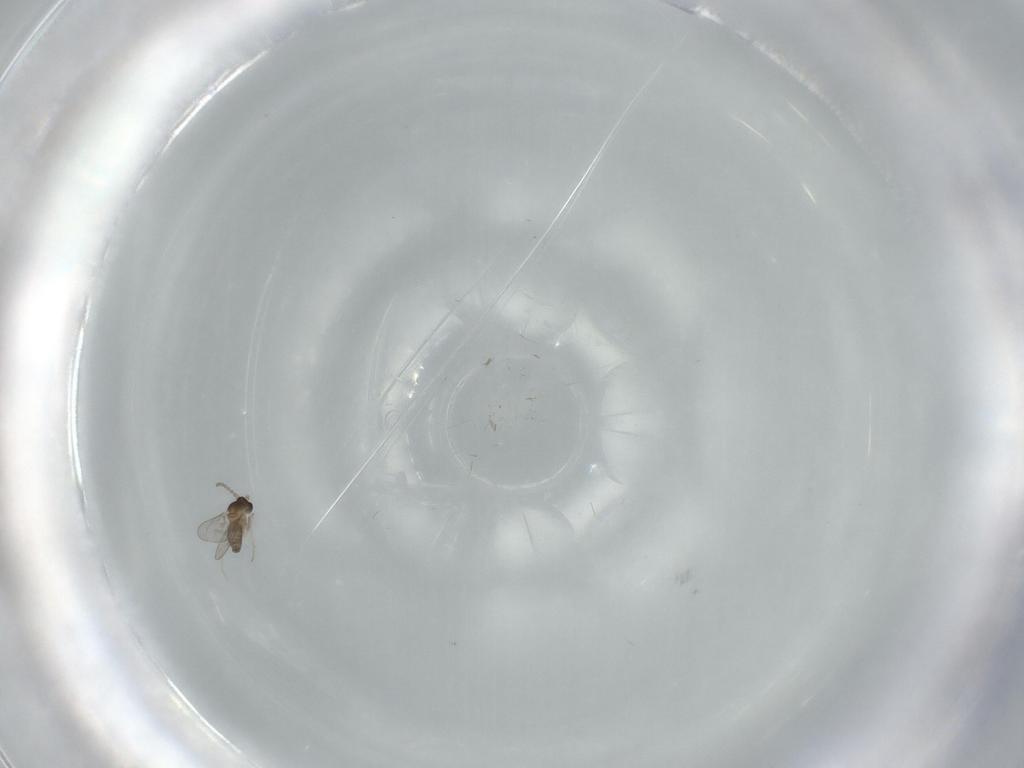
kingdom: Animalia
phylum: Arthropoda
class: Insecta
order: Diptera
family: Cecidomyiidae
